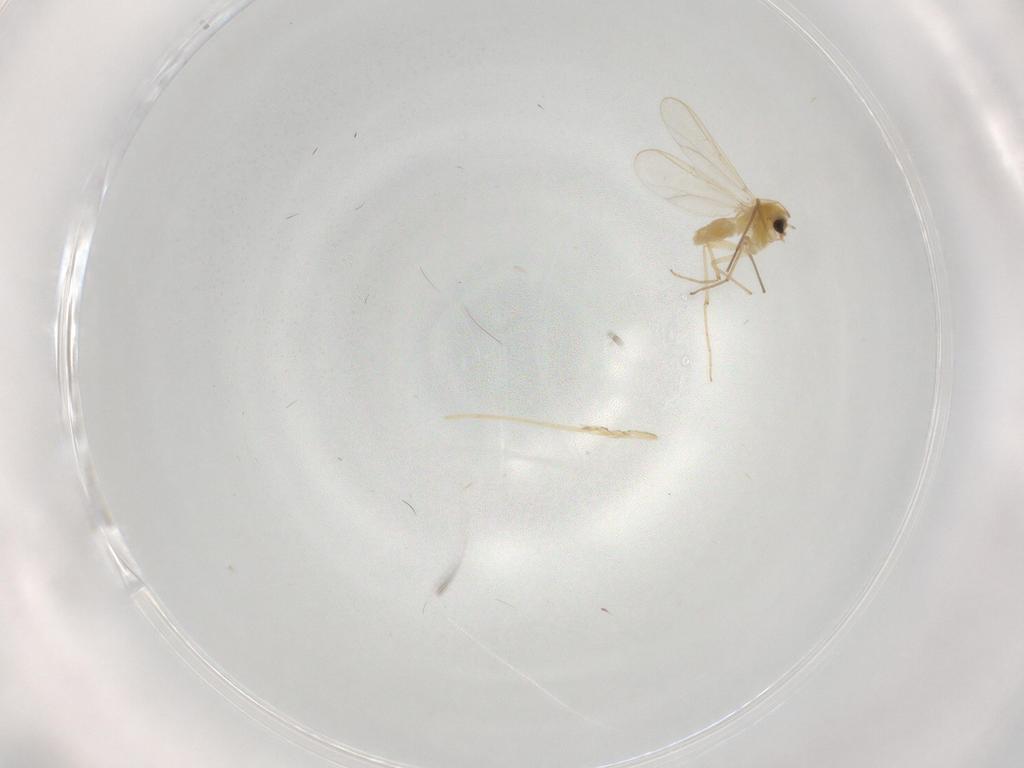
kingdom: Animalia
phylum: Arthropoda
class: Insecta
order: Diptera
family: Chironomidae
